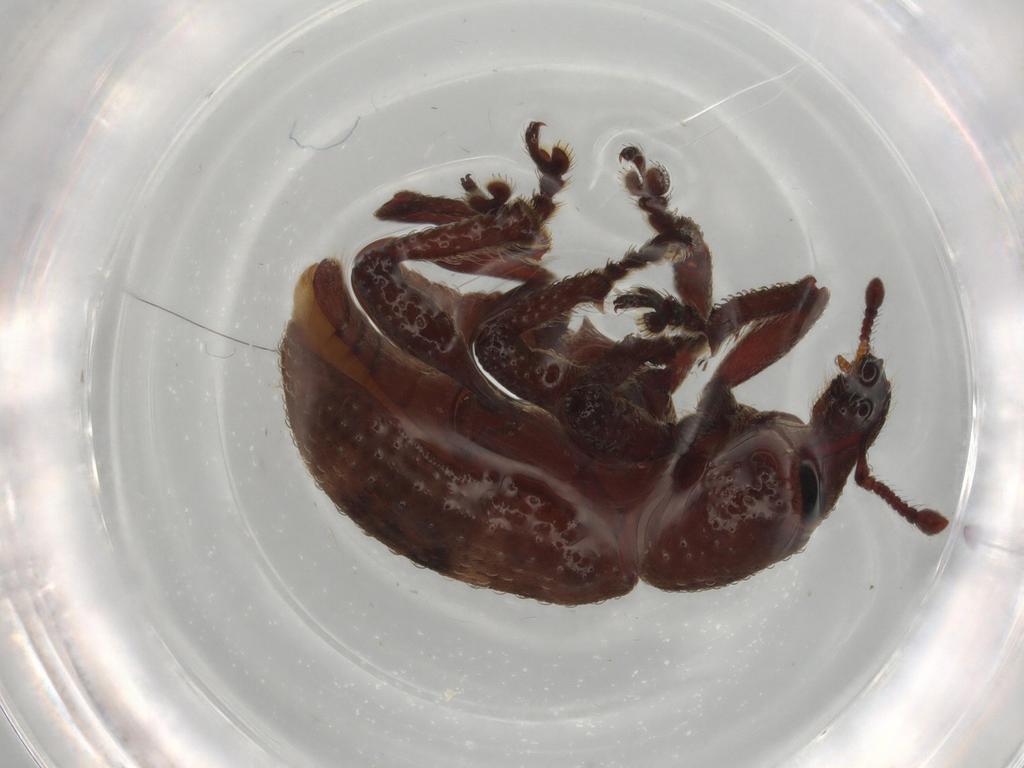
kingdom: Animalia
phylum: Arthropoda
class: Insecta
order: Coleoptera
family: Curculionidae
